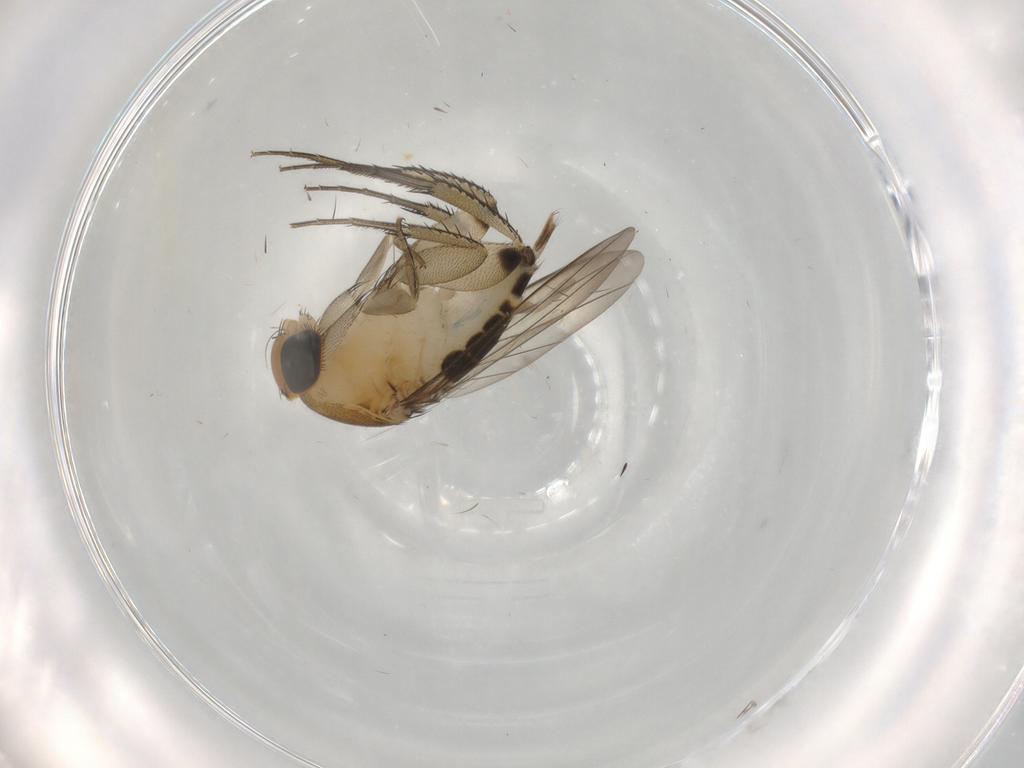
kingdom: Animalia
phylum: Arthropoda
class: Insecta
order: Diptera
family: Phoridae
